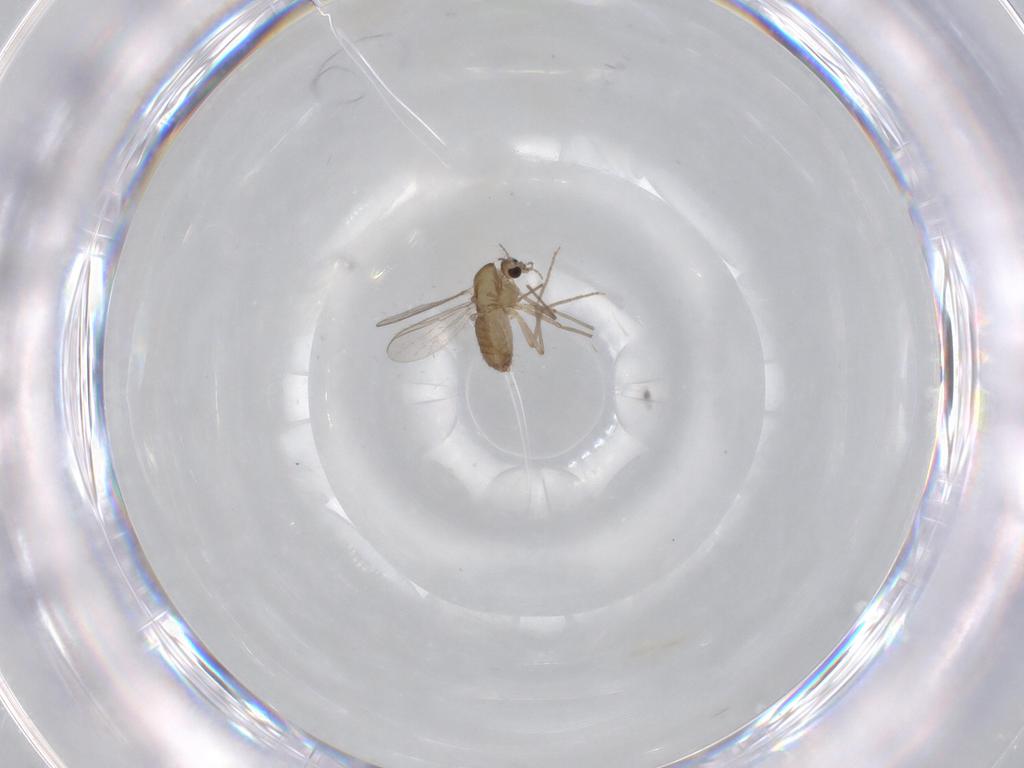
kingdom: Animalia
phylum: Arthropoda
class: Insecta
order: Diptera
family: Chironomidae
